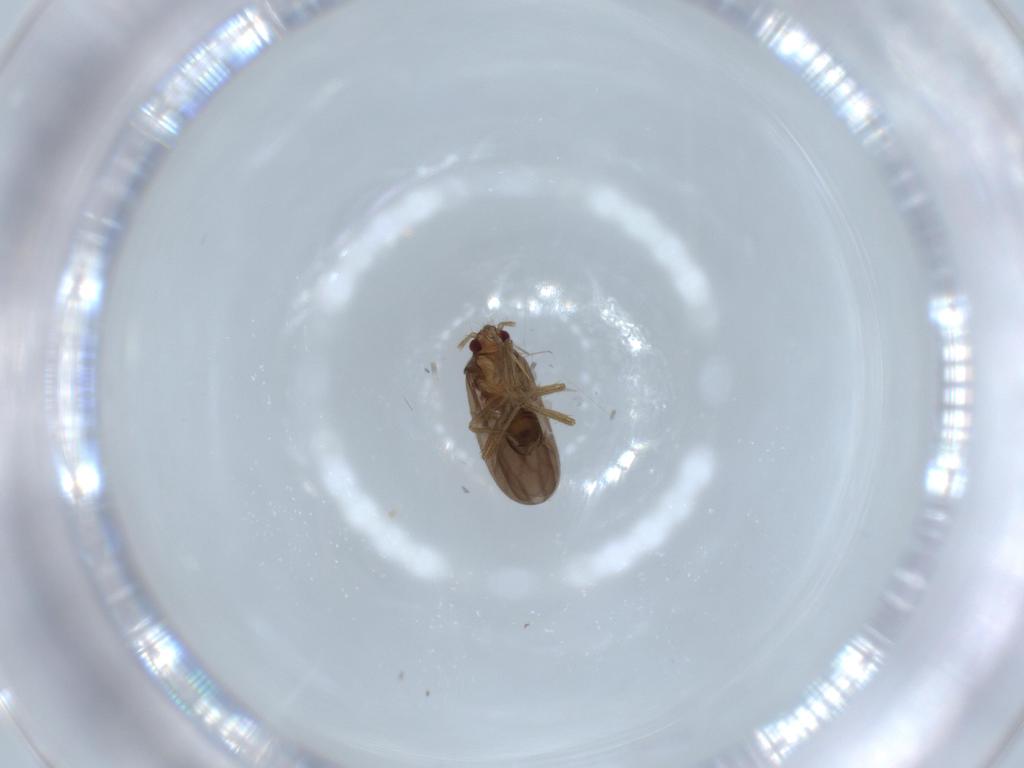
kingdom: Animalia
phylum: Arthropoda
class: Insecta
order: Hemiptera
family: Ceratocombidae
